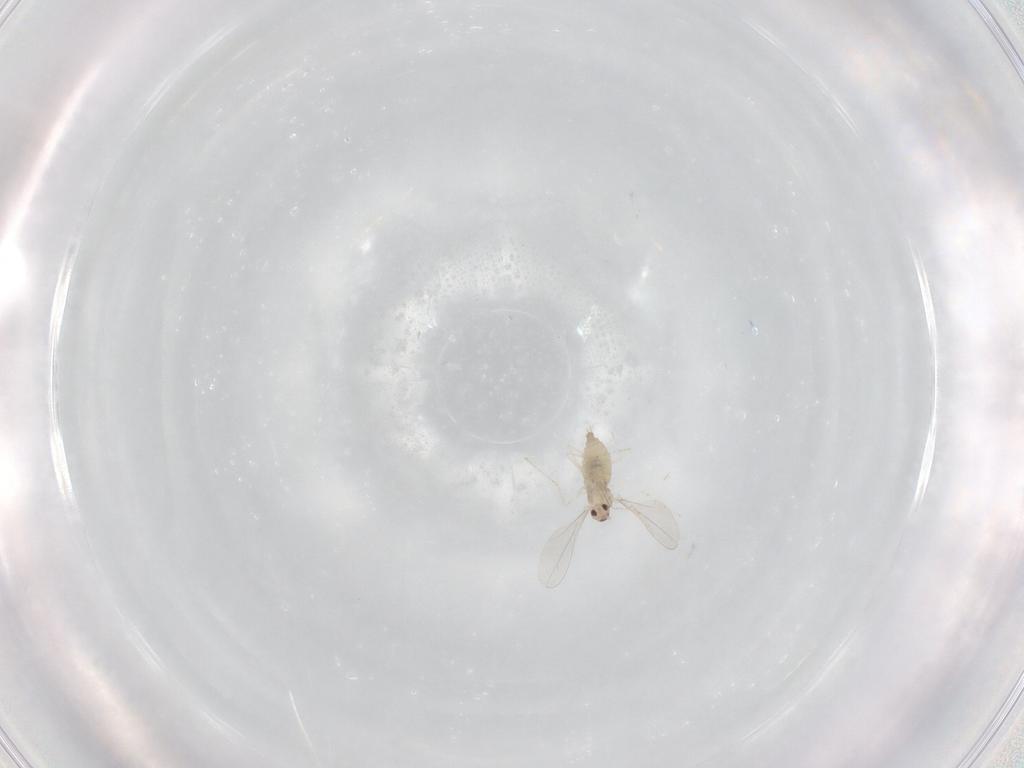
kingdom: Animalia
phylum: Arthropoda
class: Insecta
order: Diptera
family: Cecidomyiidae
